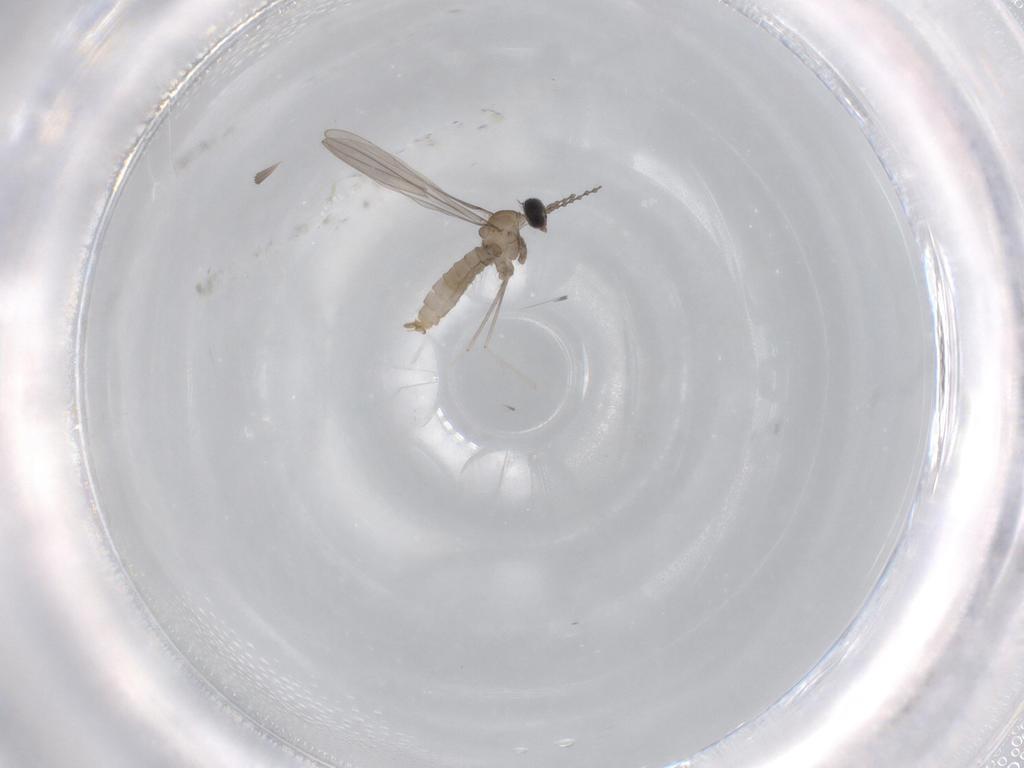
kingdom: Animalia
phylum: Arthropoda
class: Insecta
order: Diptera
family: Cecidomyiidae
